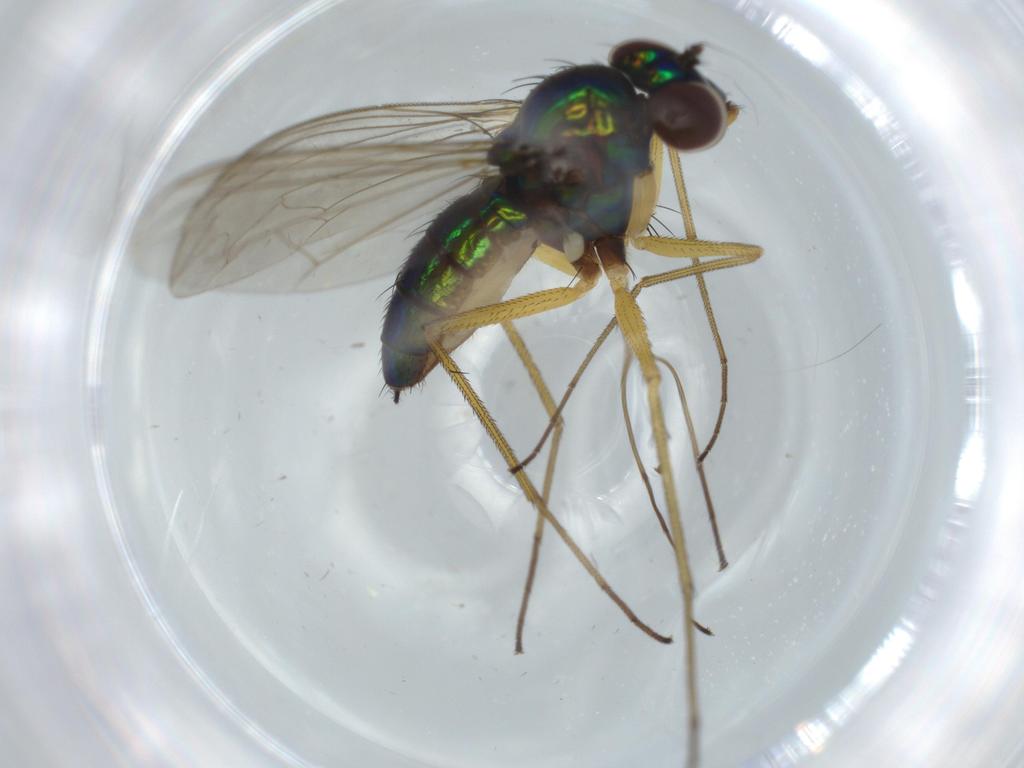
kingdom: Animalia
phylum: Arthropoda
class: Insecta
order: Diptera
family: Dolichopodidae
